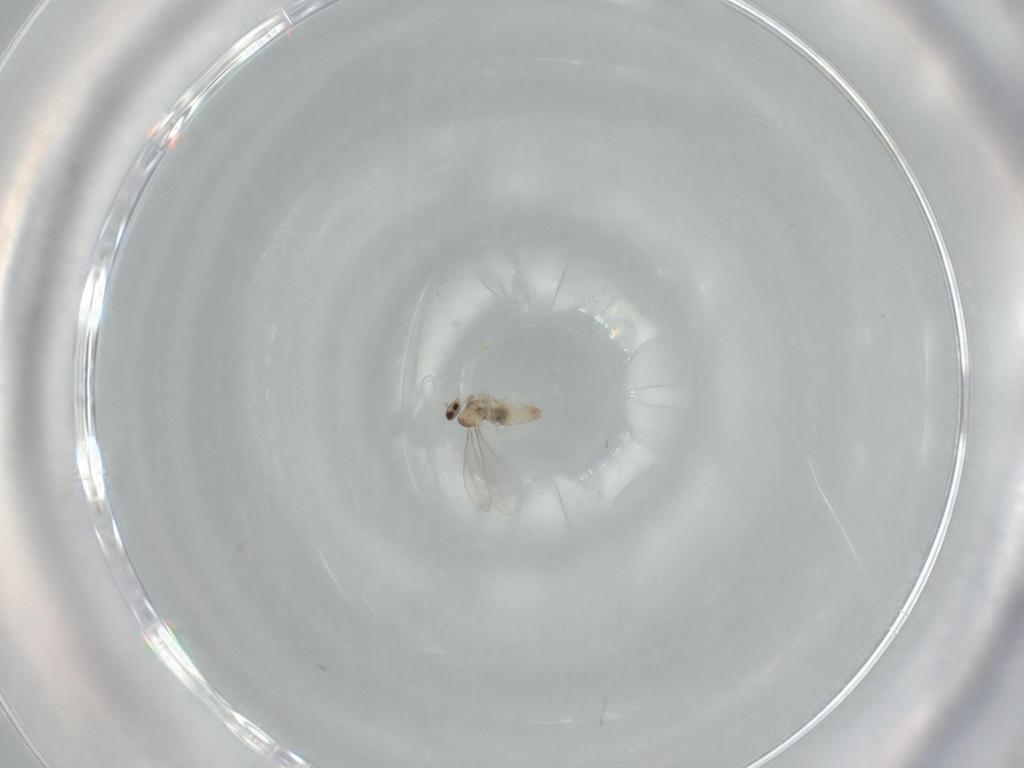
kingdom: Animalia
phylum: Arthropoda
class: Insecta
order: Diptera
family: Cecidomyiidae
